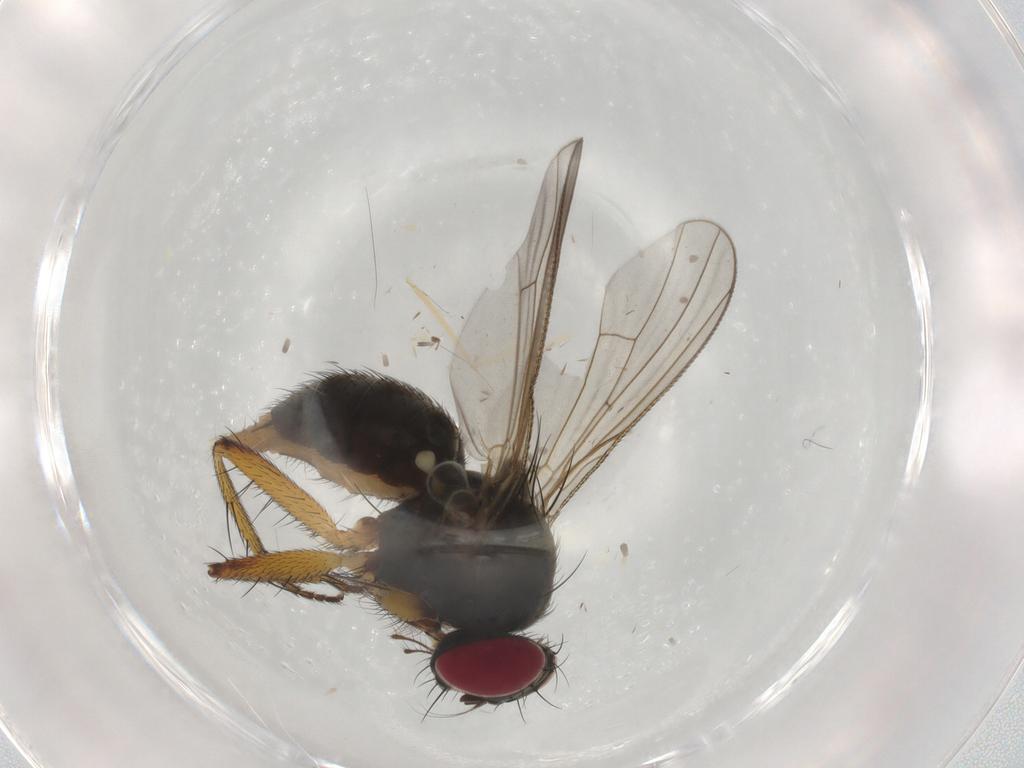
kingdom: Animalia
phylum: Arthropoda
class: Insecta
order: Diptera
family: Muscidae
